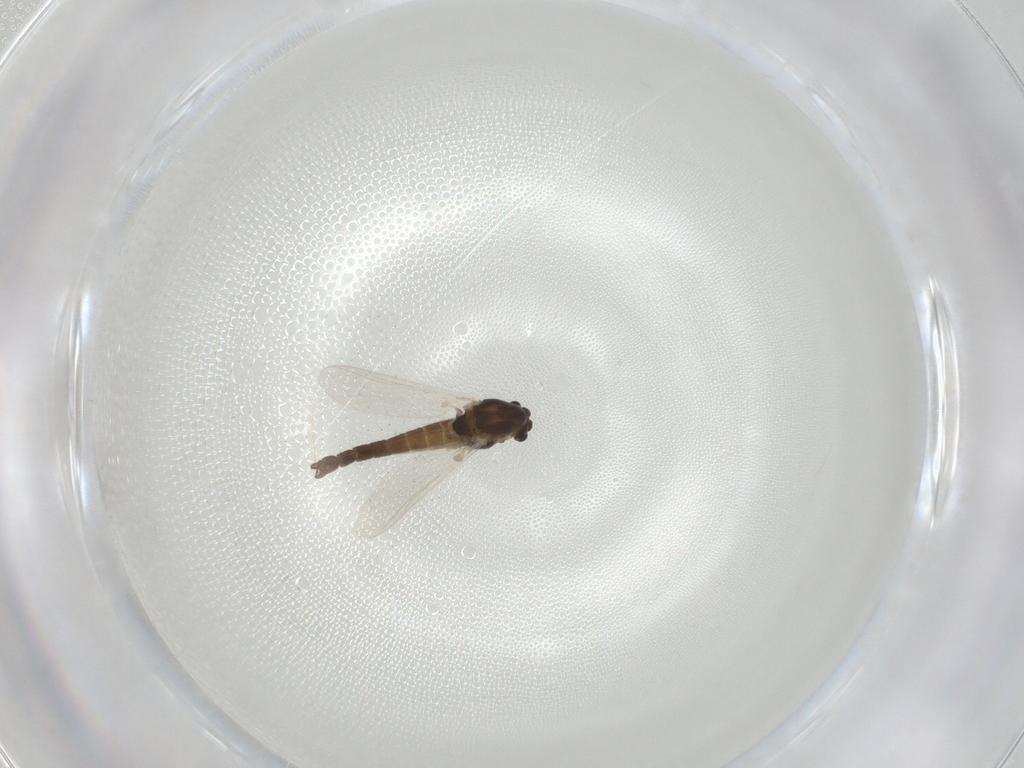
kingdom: Animalia
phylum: Arthropoda
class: Insecta
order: Diptera
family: Chironomidae
